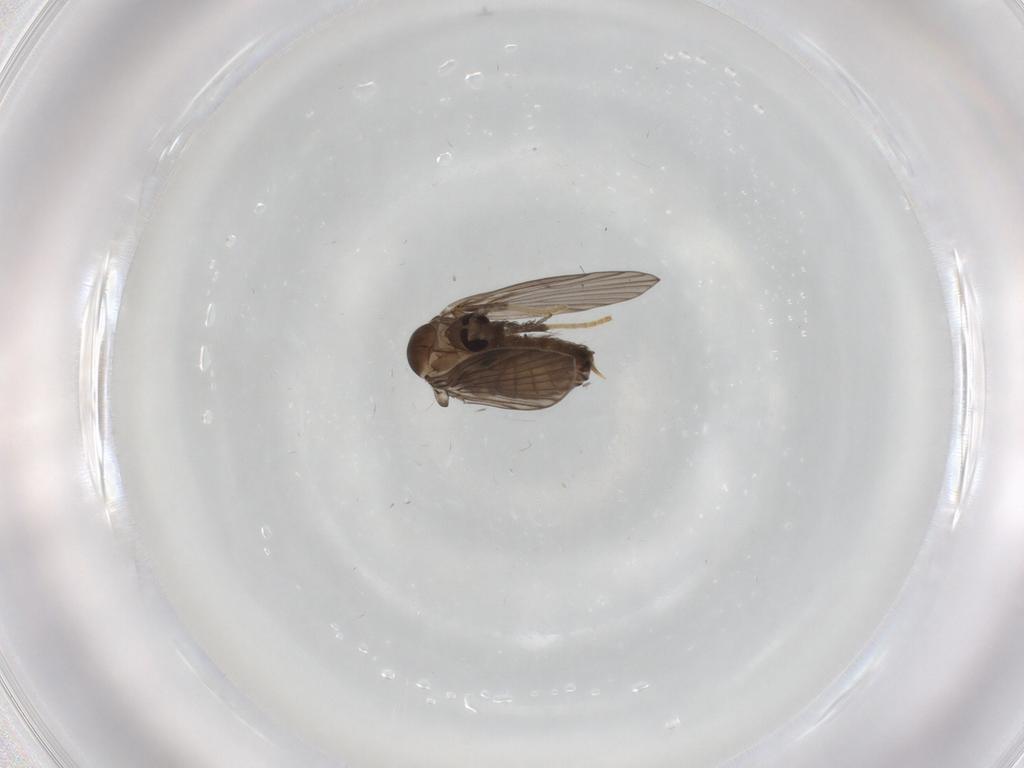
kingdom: Animalia
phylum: Arthropoda
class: Insecta
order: Diptera
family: Psychodidae
